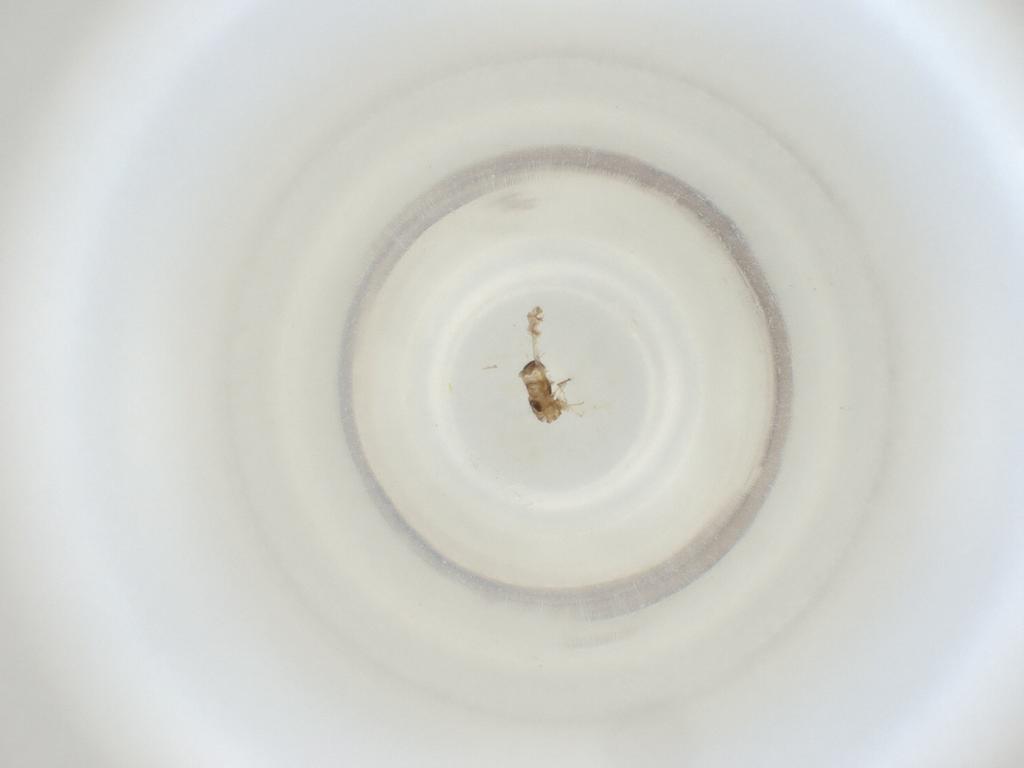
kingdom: Animalia
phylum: Arthropoda
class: Insecta
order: Diptera
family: Cecidomyiidae
